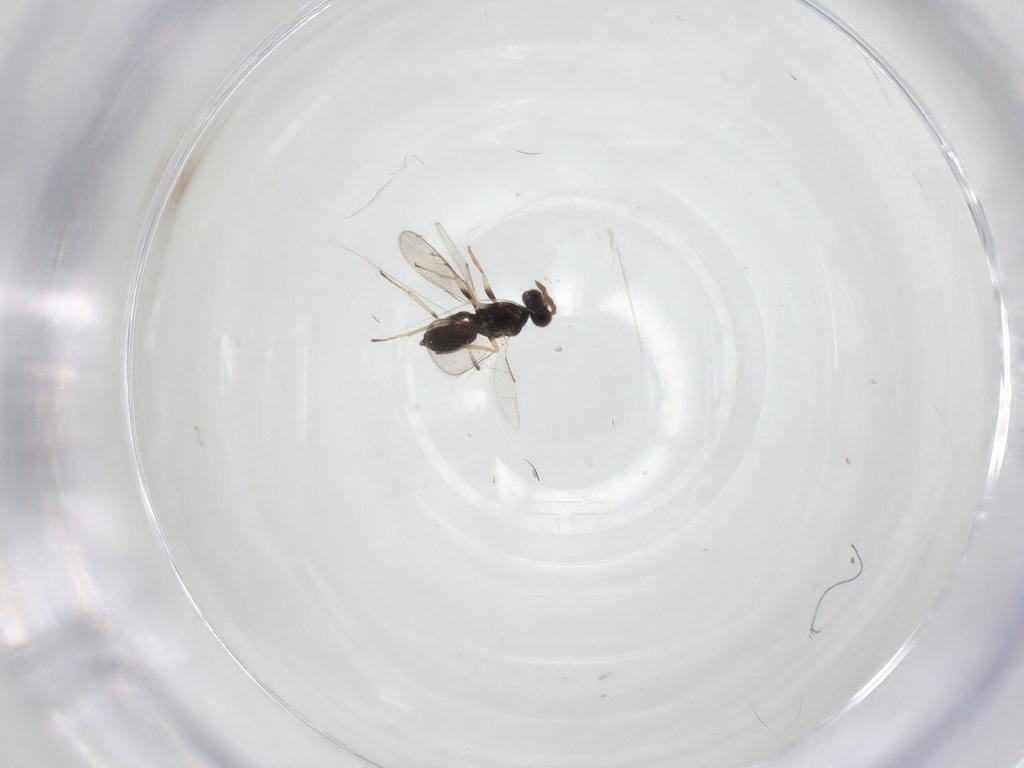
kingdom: Animalia
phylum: Arthropoda
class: Insecta
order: Hymenoptera
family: Eulophidae
